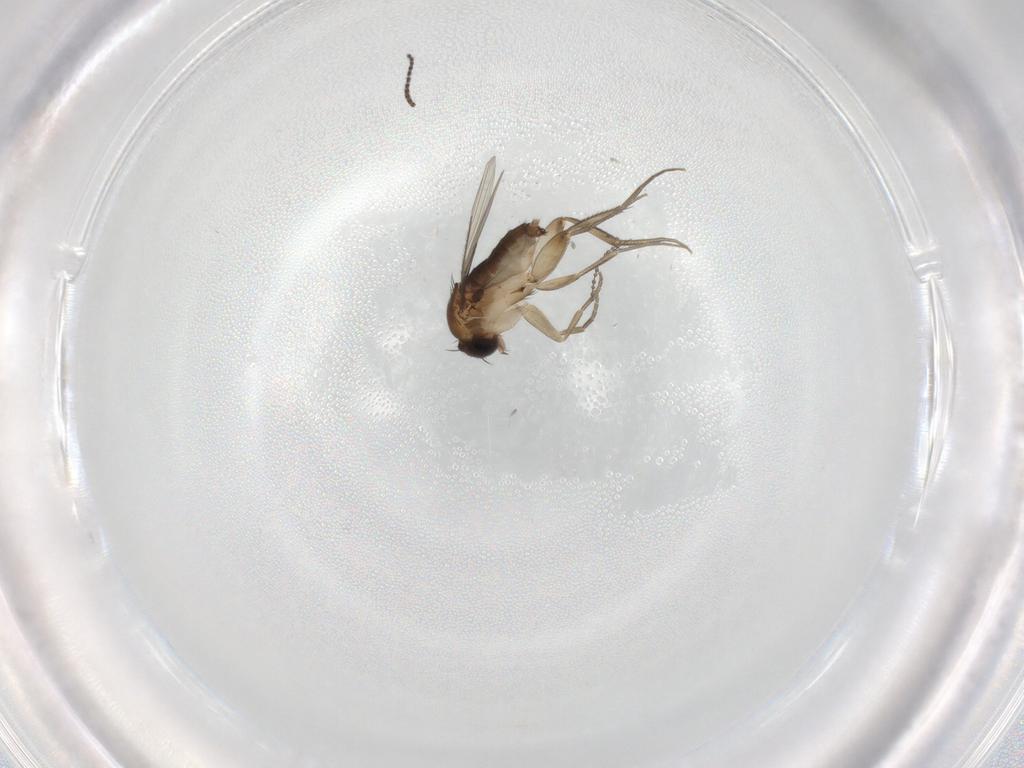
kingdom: Animalia
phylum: Arthropoda
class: Insecta
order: Diptera
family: Phoridae
